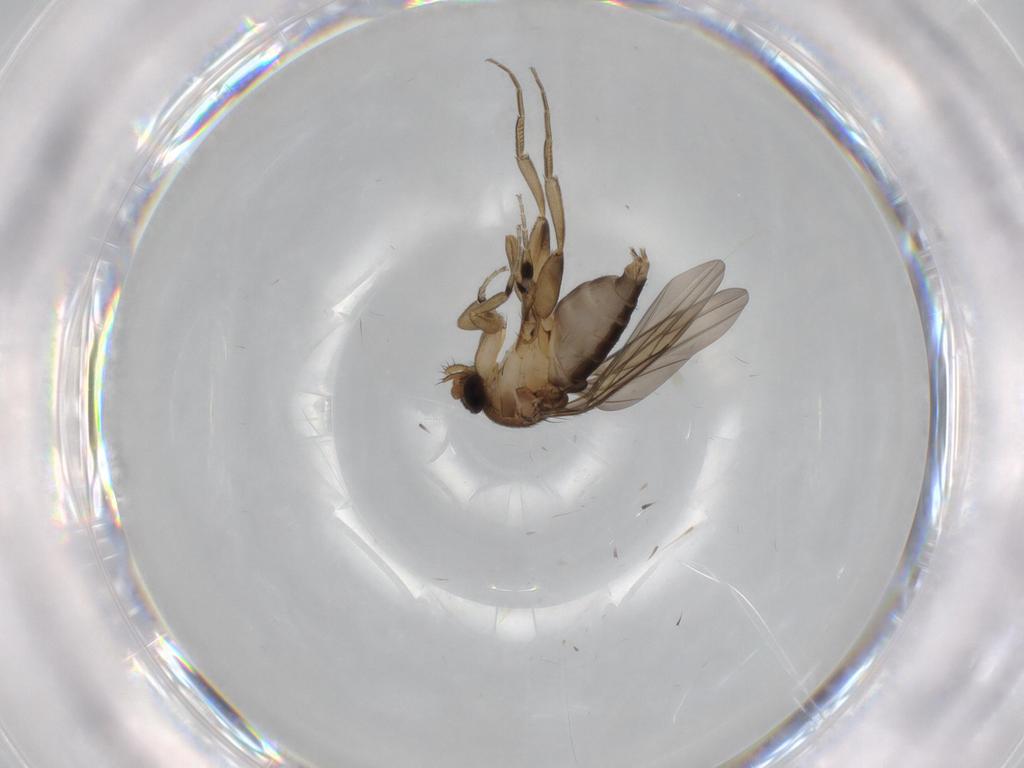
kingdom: Animalia
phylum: Arthropoda
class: Insecta
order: Diptera
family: Phoridae
